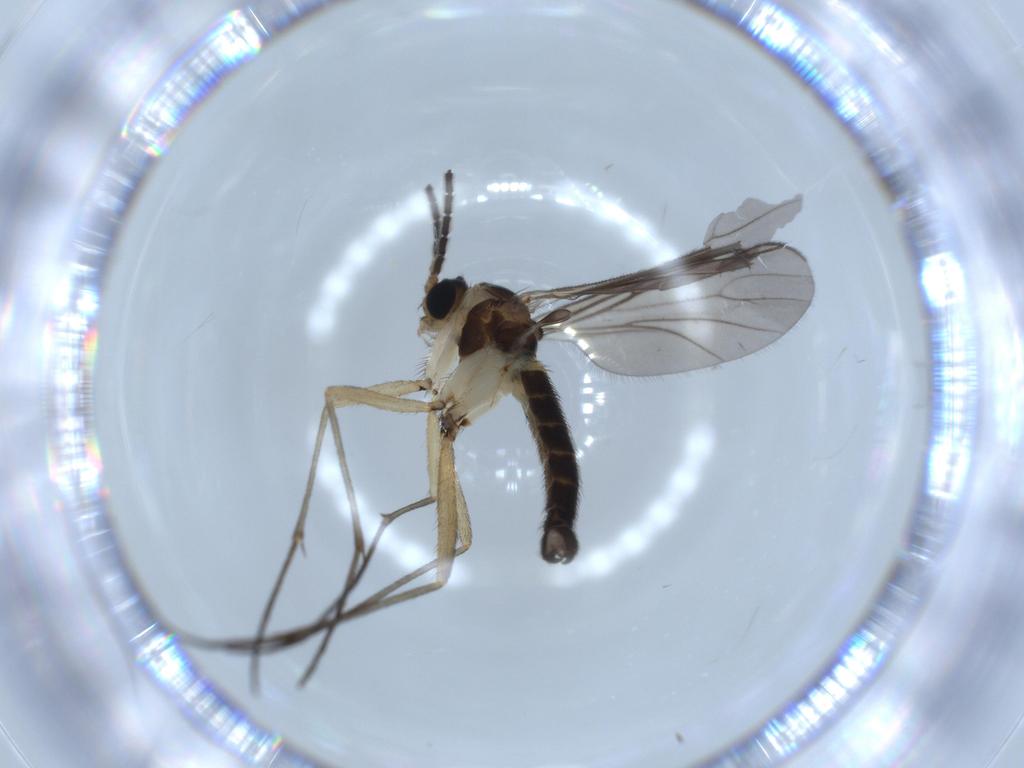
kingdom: Animalia
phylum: Arthropoda
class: Insecta
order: Diptera
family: Sciaridae
